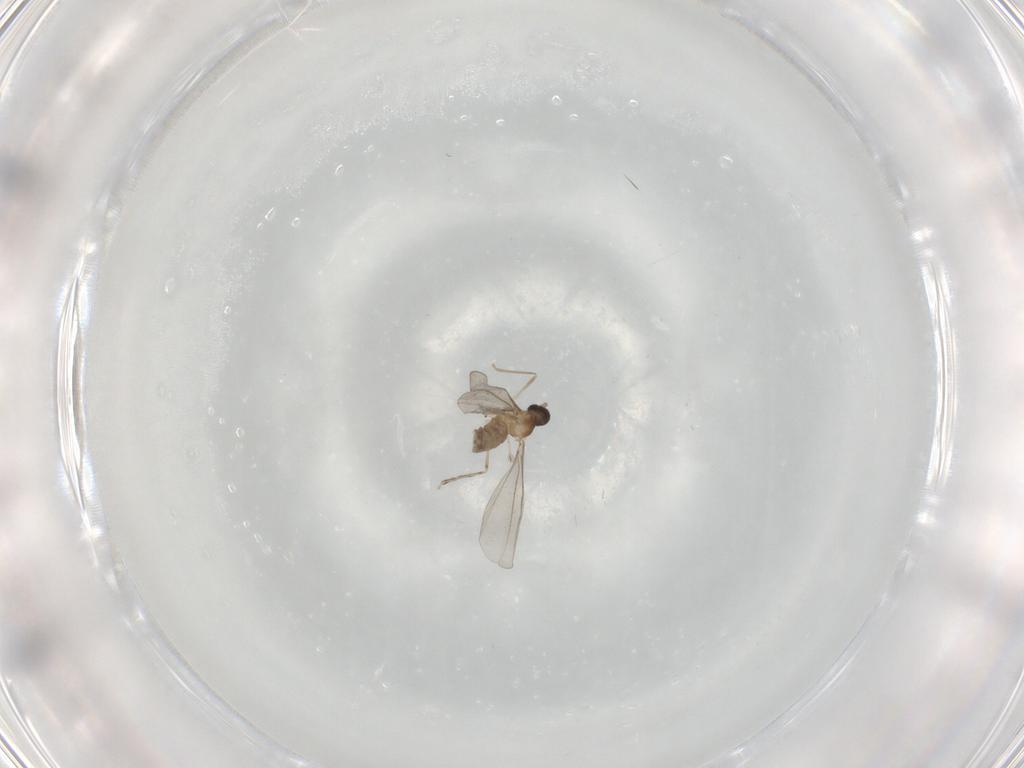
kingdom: Animalia
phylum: Arthropoda
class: Insecta
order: Diptera
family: Cecidomyiidae
